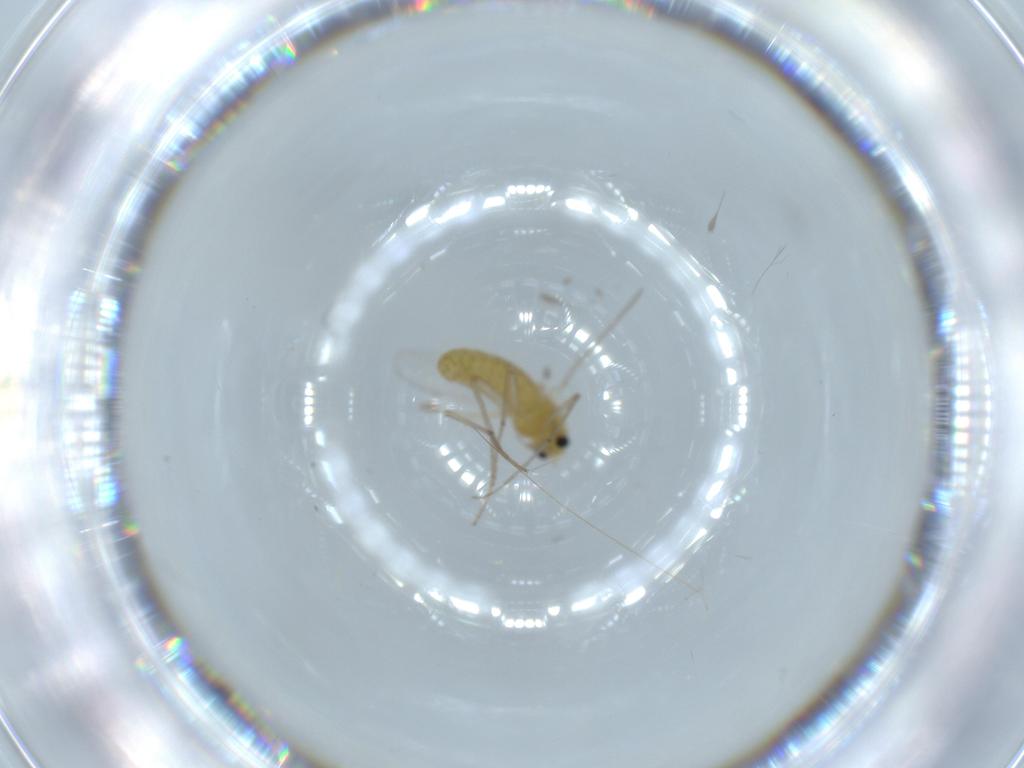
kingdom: Animalia
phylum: Arthropoda
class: Insecta
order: Diptera
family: Chironomidae
